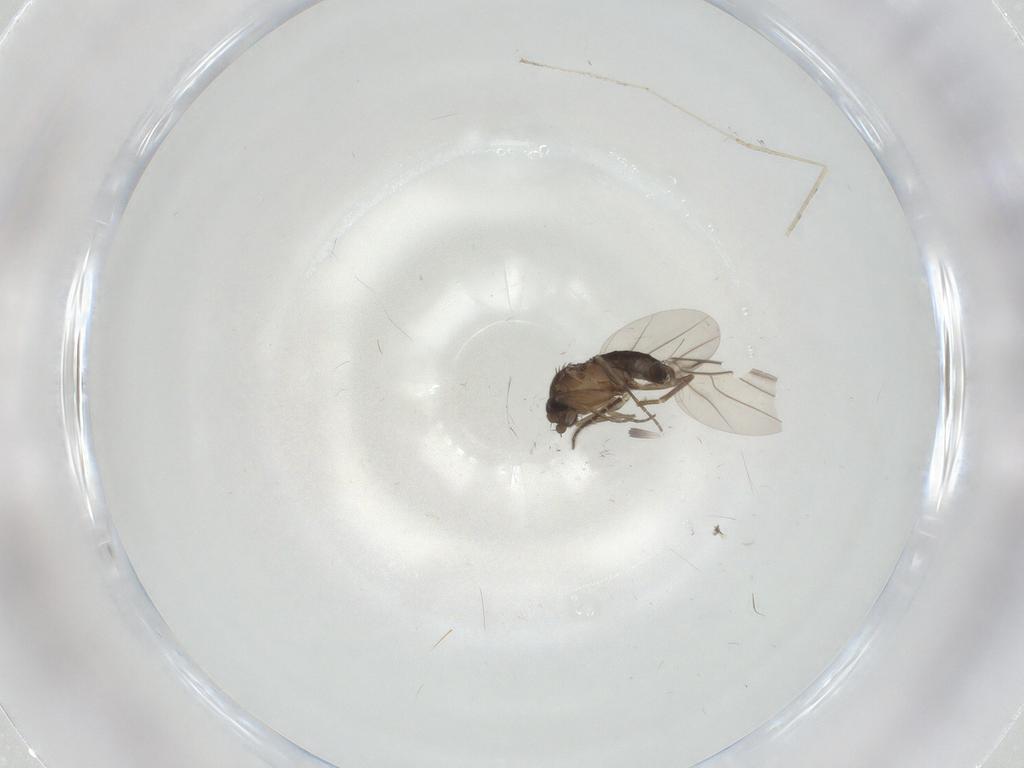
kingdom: Animalia
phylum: Arthropoda
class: Insecta
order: Diptera
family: Phoridae
